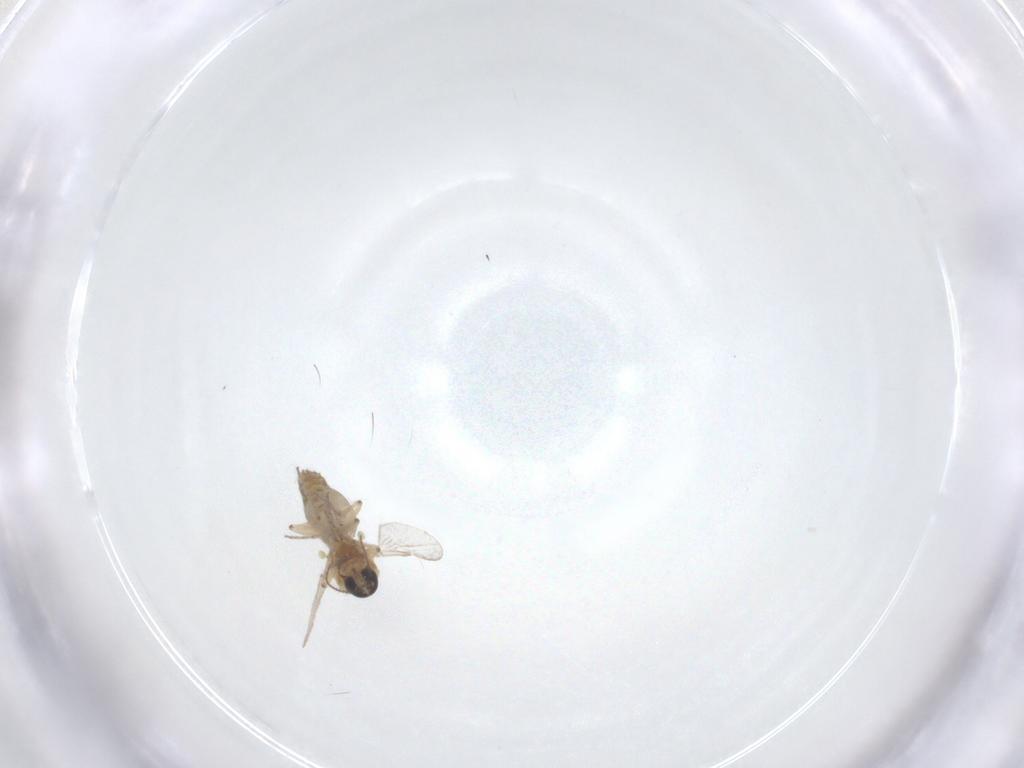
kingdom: Animalia
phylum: Arthropoda
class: Insecta
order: Diptera
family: Ceratopogonidae
